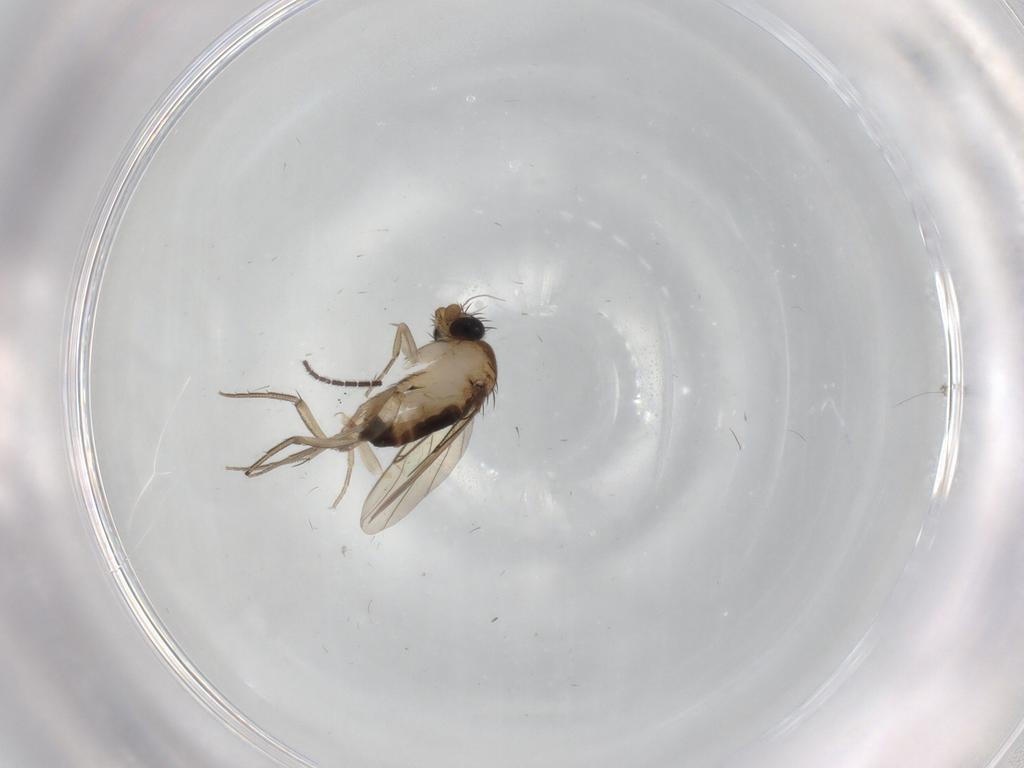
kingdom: Animalia
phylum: Arthropoda
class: Insecta
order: Diptera
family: Phoridae
